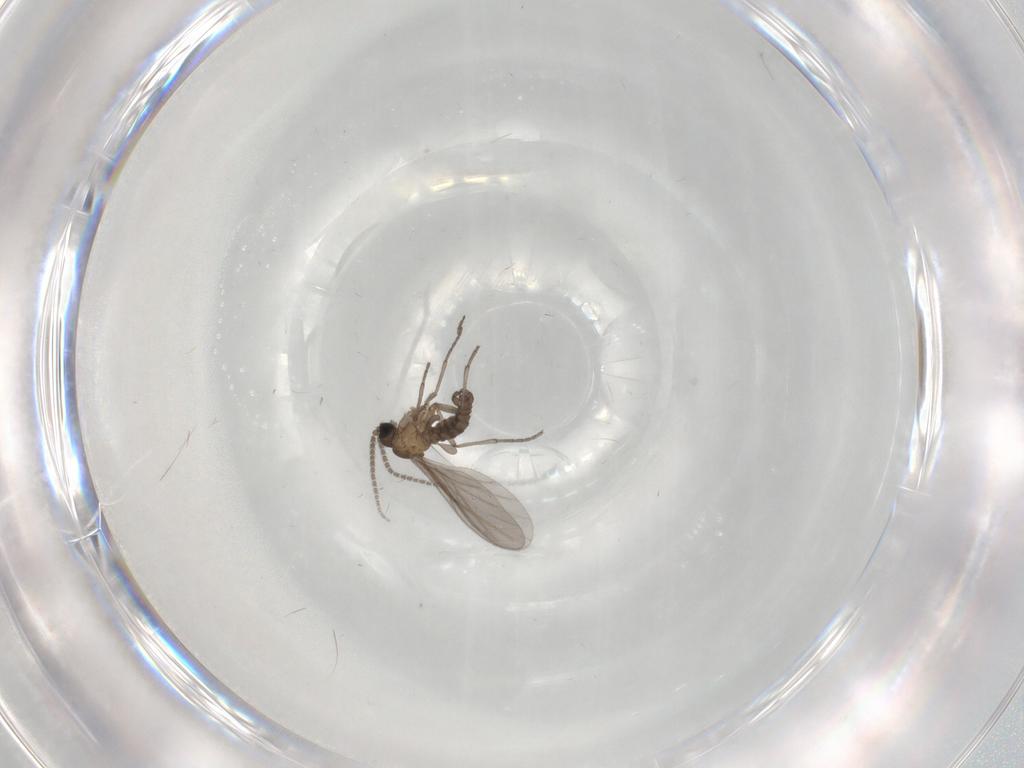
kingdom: Animalia
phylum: Arthropoda
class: Insecta
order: Diptera
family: Sciaridae
